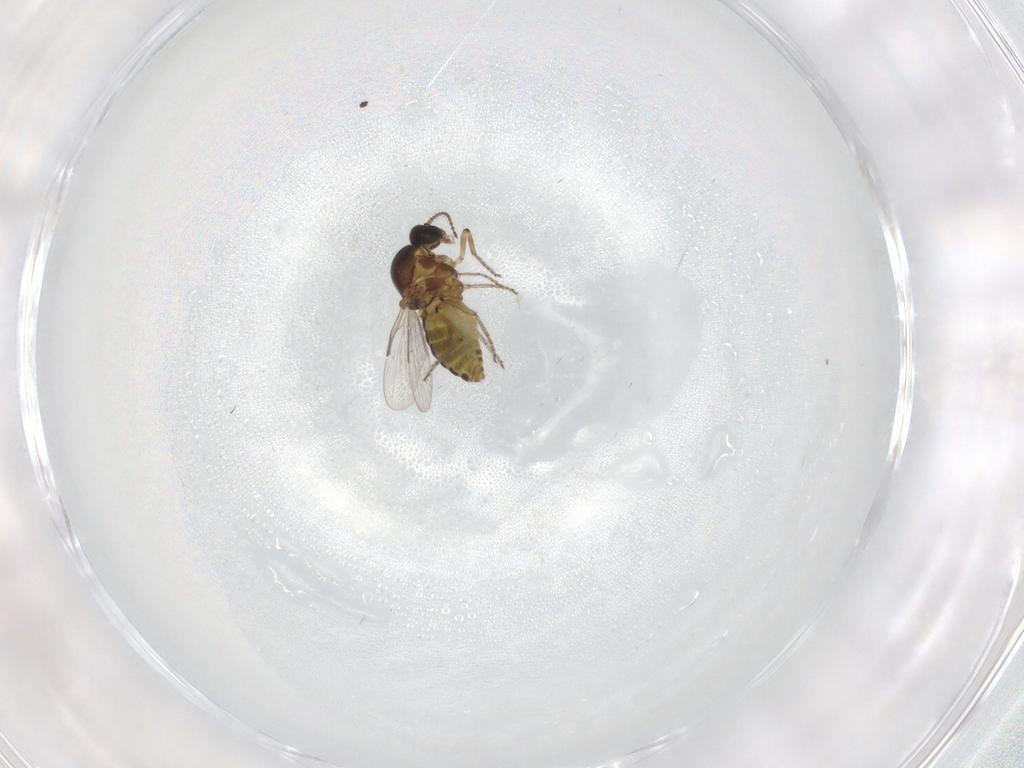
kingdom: Animalia
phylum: Arthropoda
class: Insecta
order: Diptera
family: Ceratopogonidae
